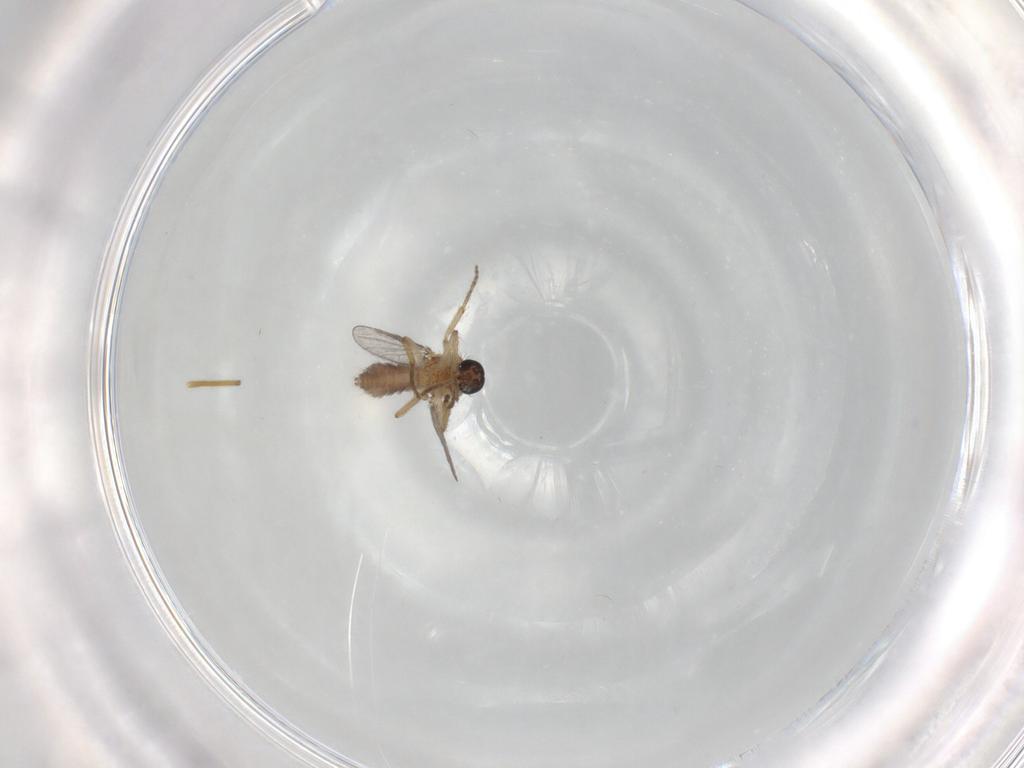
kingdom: Animalia
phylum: Arthropoda
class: Insecta
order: Diptera
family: Ceratopogonidae
